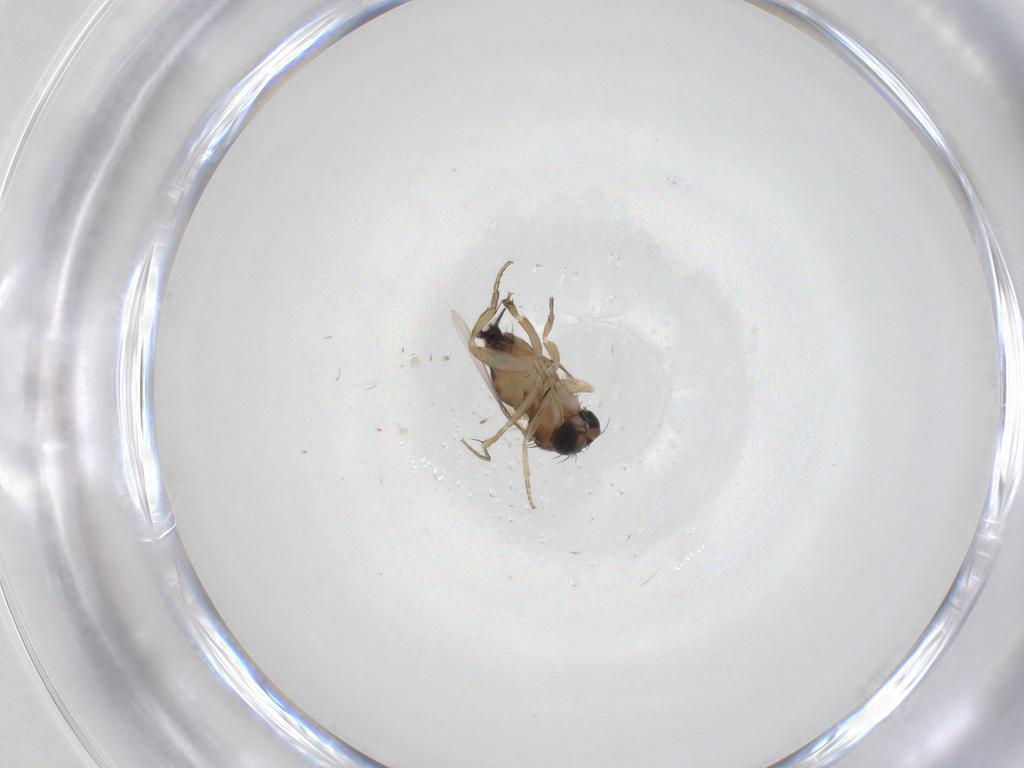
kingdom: Animalia
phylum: Arthropoda
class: Insecta
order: Diptera
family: Phoridae
